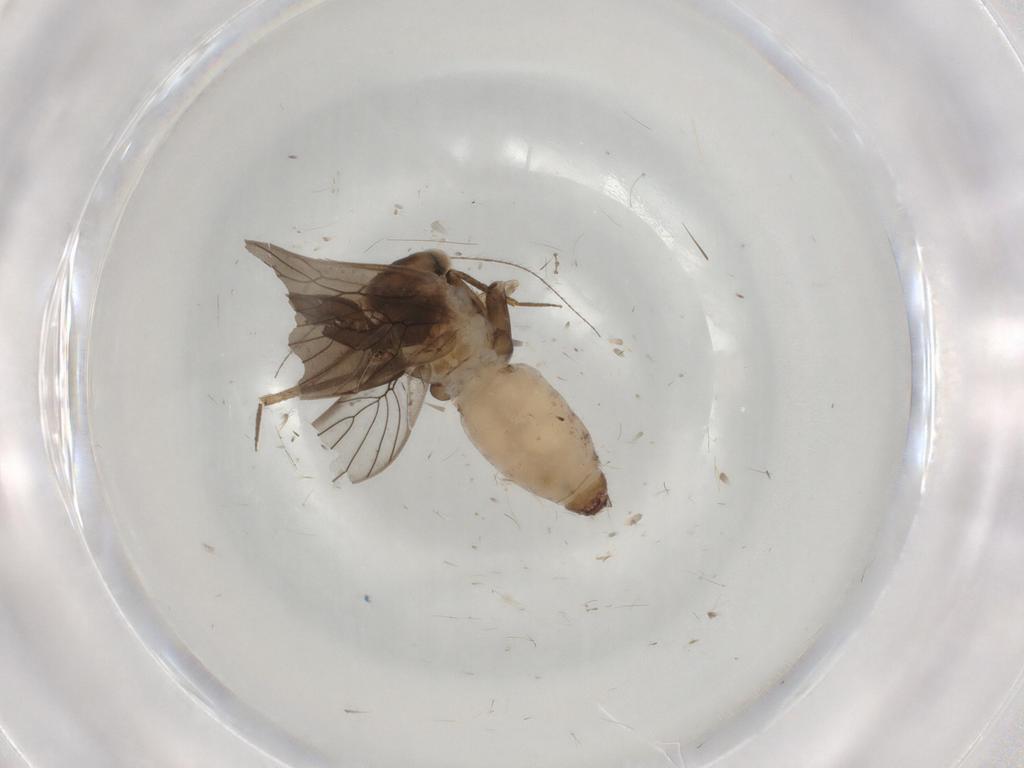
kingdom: Animalia
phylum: Arthropoda
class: Insecta
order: Psocodea
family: Lepidopsocidae
